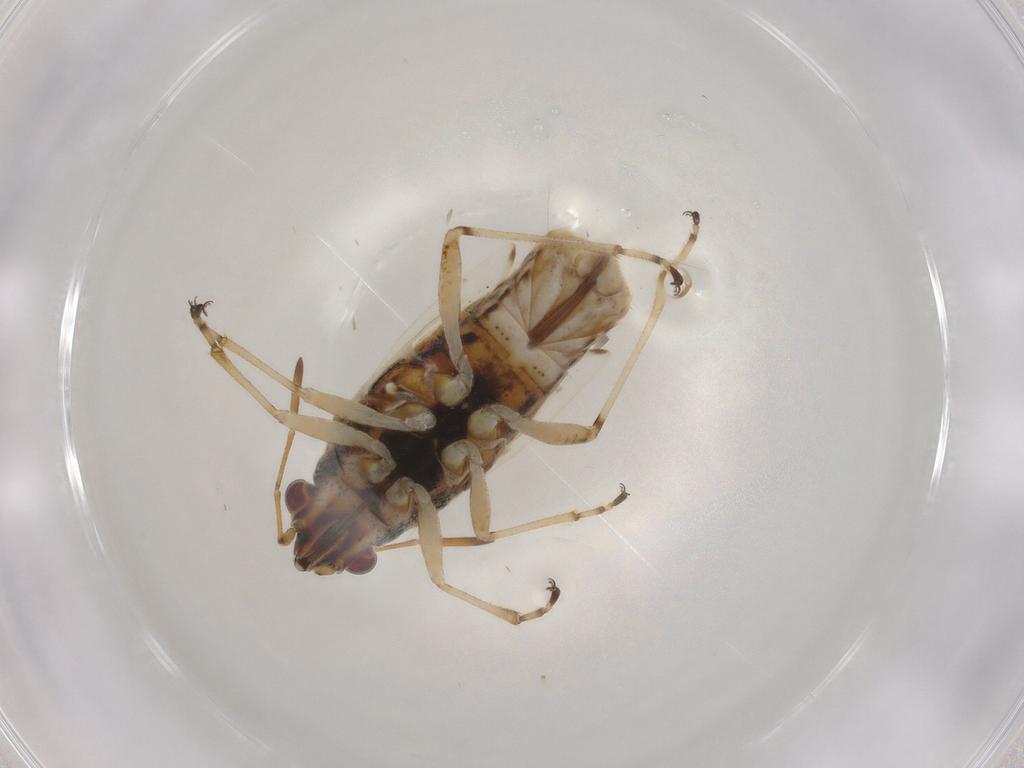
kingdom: Animalia
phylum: Arthropoda
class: Insecta
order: Hemiptera
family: Lygaeidae
